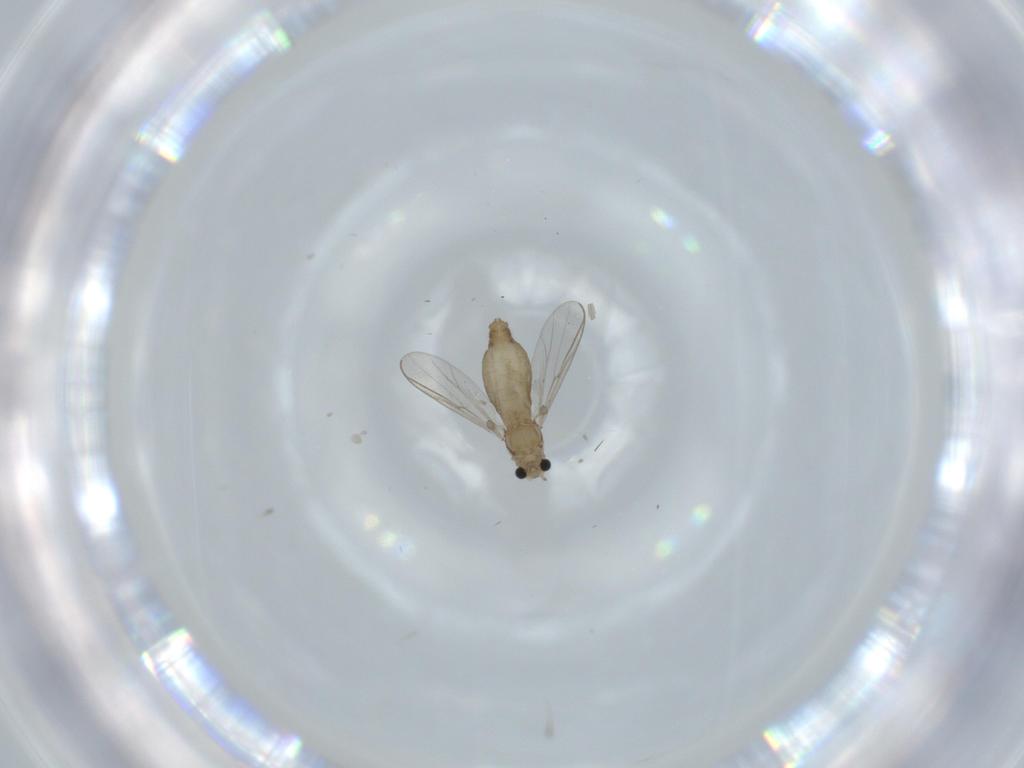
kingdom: Animalia
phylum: Arthropoda
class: Insecta
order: Diptera
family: Chironomidae
